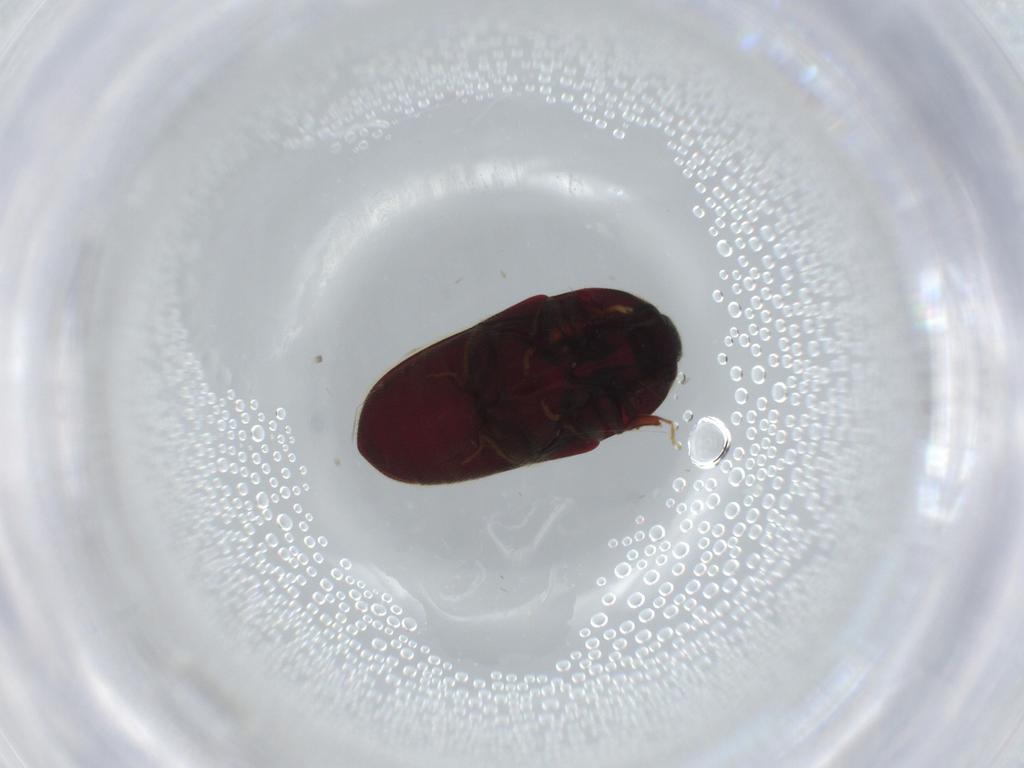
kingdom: Animalia
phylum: Arthropoda
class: Insecta
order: Coleoptera
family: Throscidae
